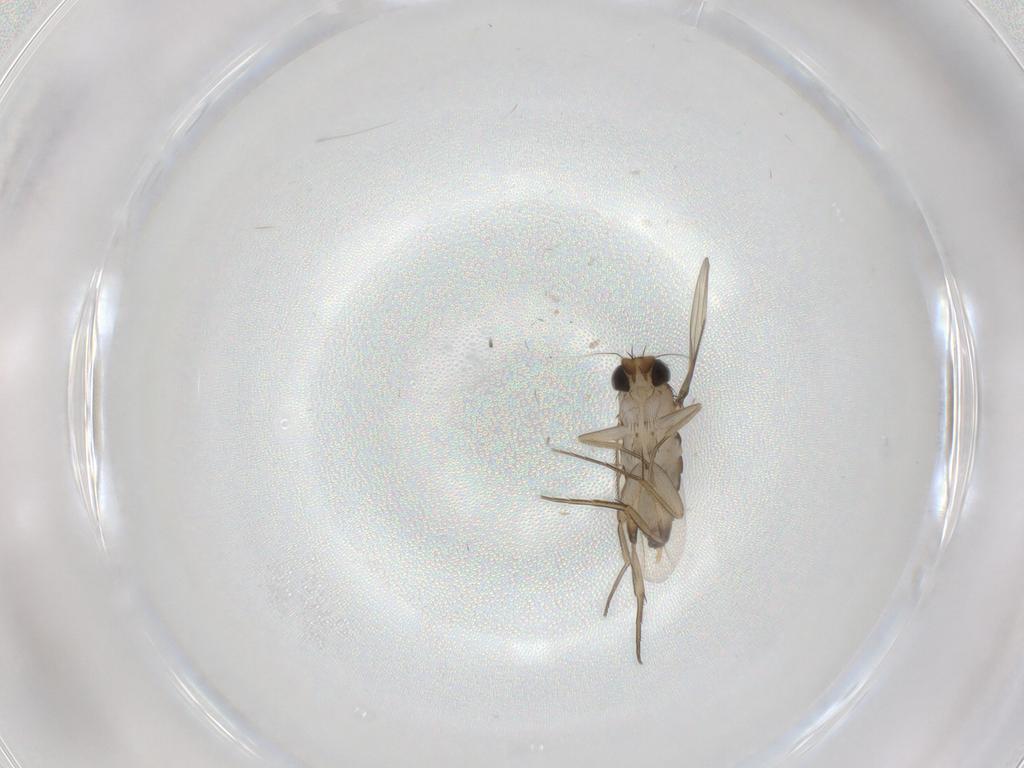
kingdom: Animalia
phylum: Arthropoda
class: Insecta
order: Diptera
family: Phoridae
